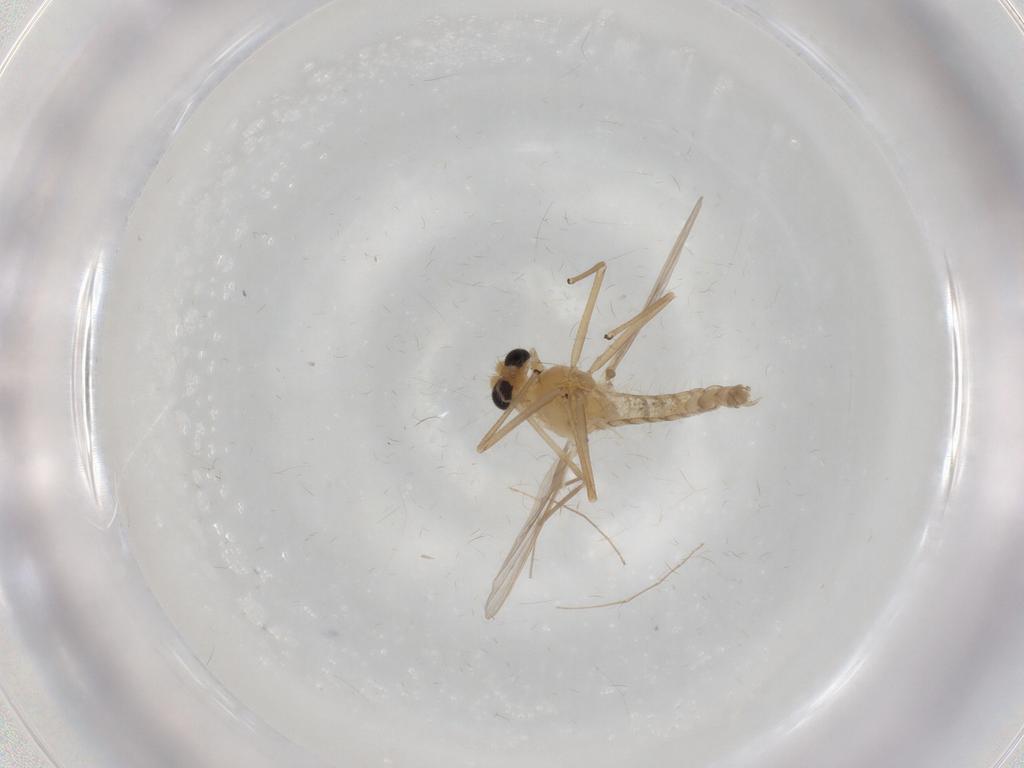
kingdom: Animalia
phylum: Arthropoda
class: Insecta
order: Diptera
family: Chironomidae
